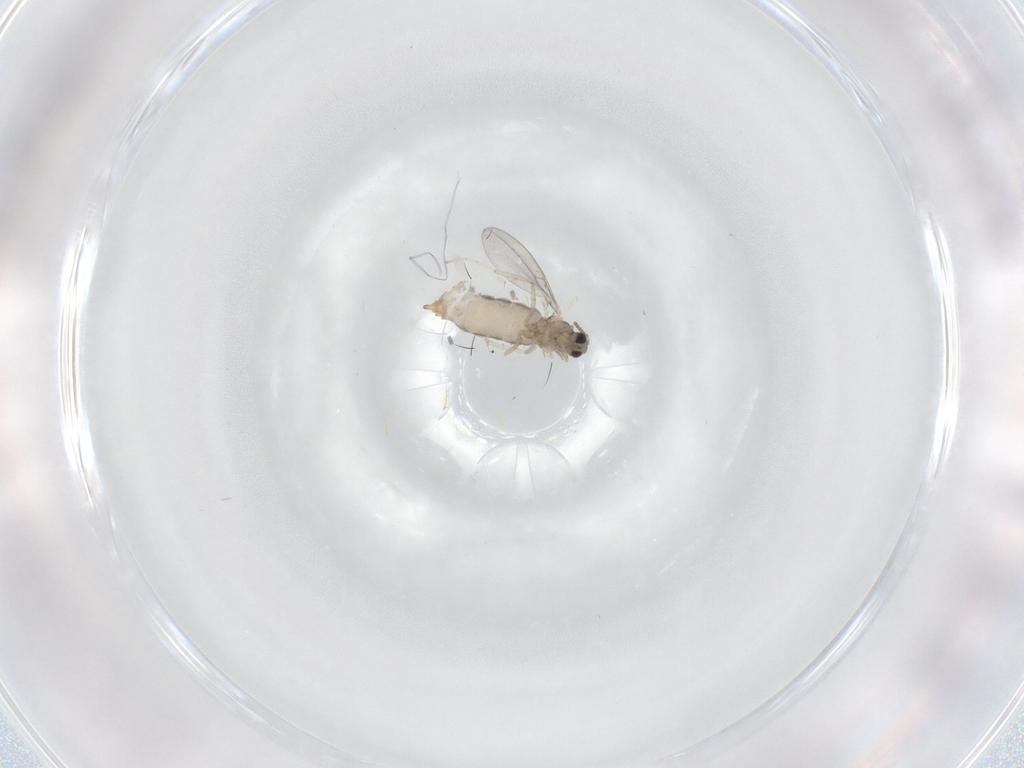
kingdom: Animalia
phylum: Arthropoda
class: Insecta
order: Diptera
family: Cecidomyiidae
